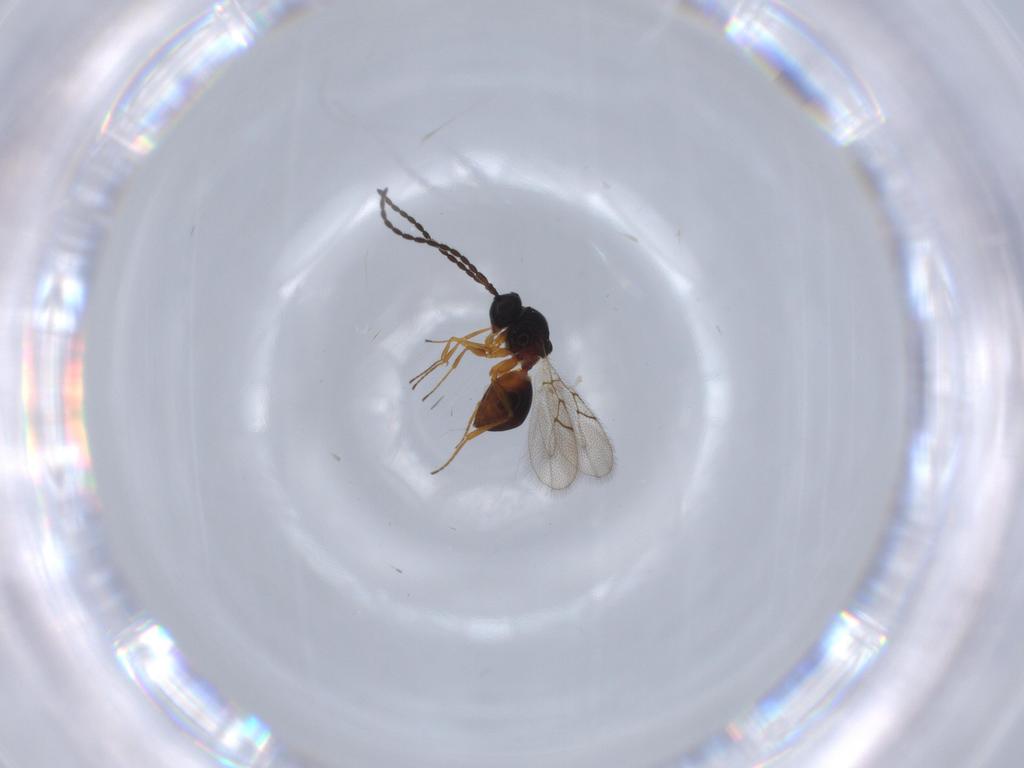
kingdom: Animalia
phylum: Arthropoda
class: Insecta
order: Hymenoptera
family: Figitidae
